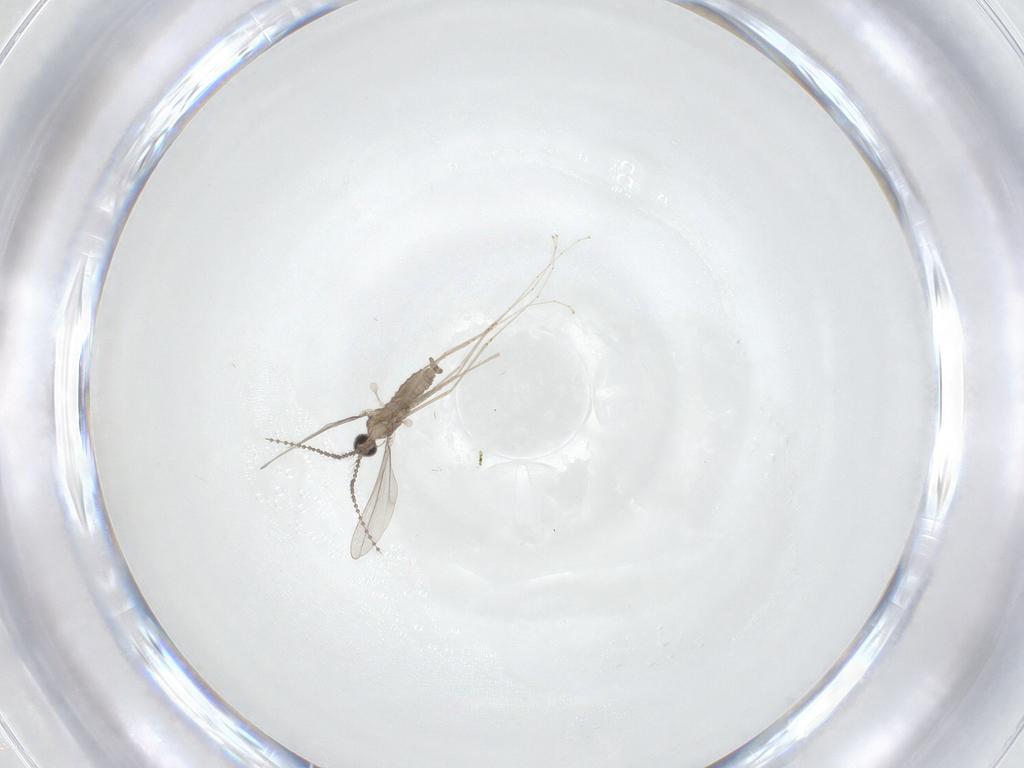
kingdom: Animalia
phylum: Arthropoda
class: Insecta
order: Diptera
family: Cecidomyiidae
